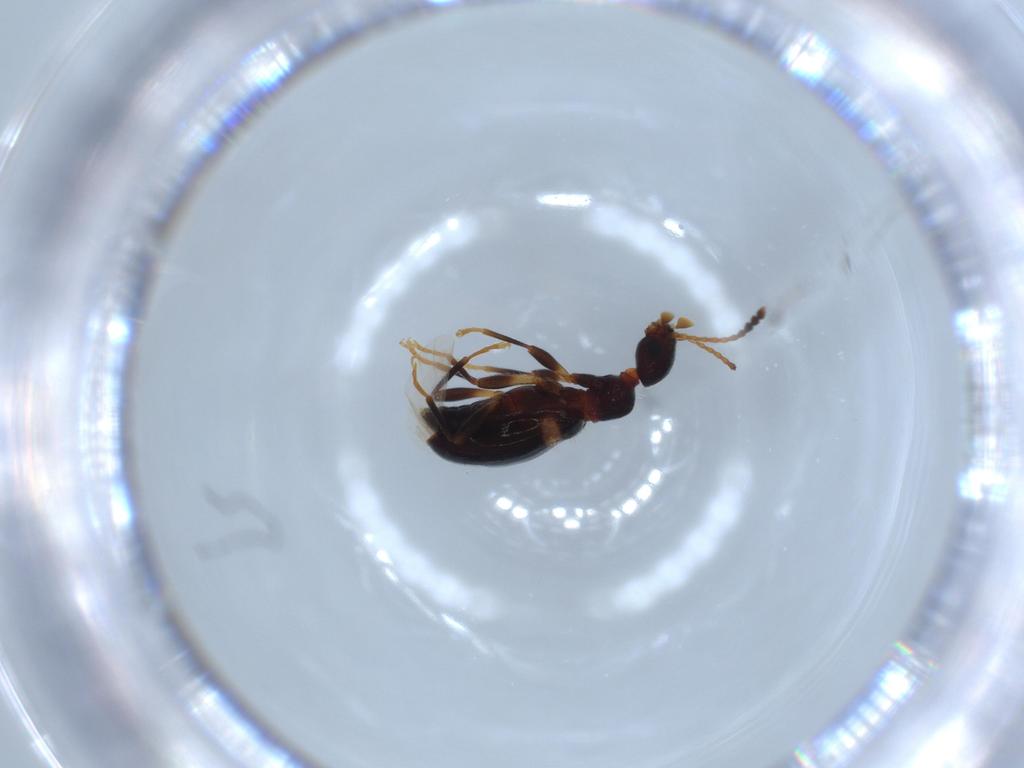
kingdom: Animalia
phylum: Arthropoda
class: Insecta
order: Coleoptera
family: Anthicidae
